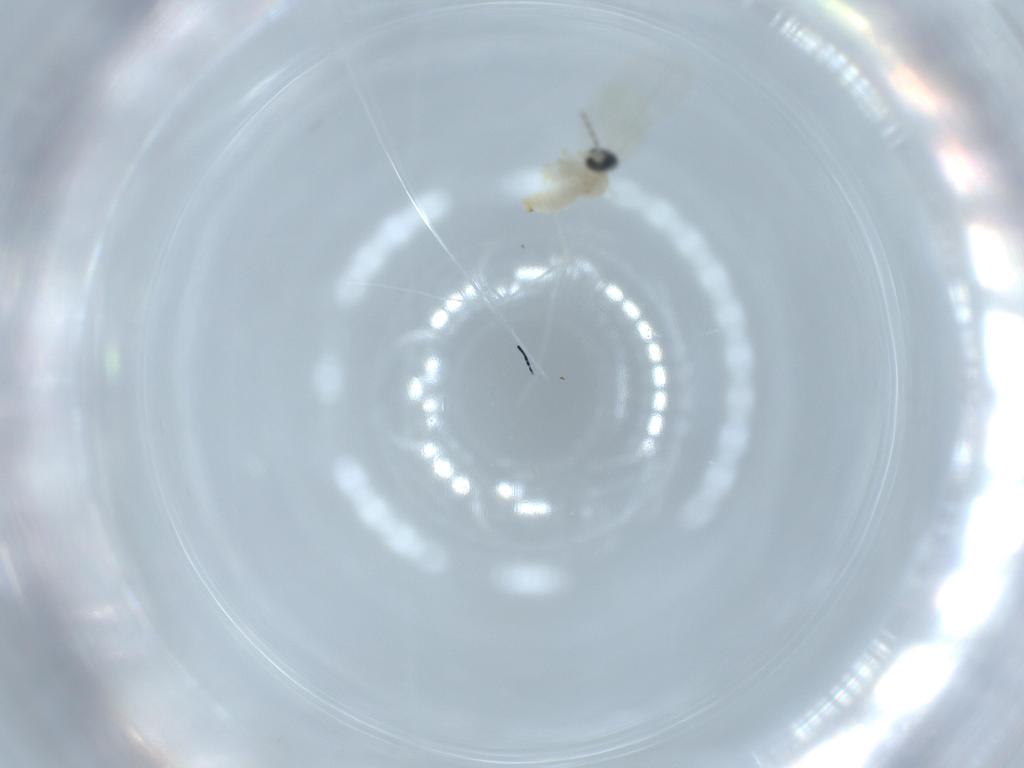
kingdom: Animalia
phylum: Arthropoda
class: Insecta
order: Diptera
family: Cecidomyiidae
